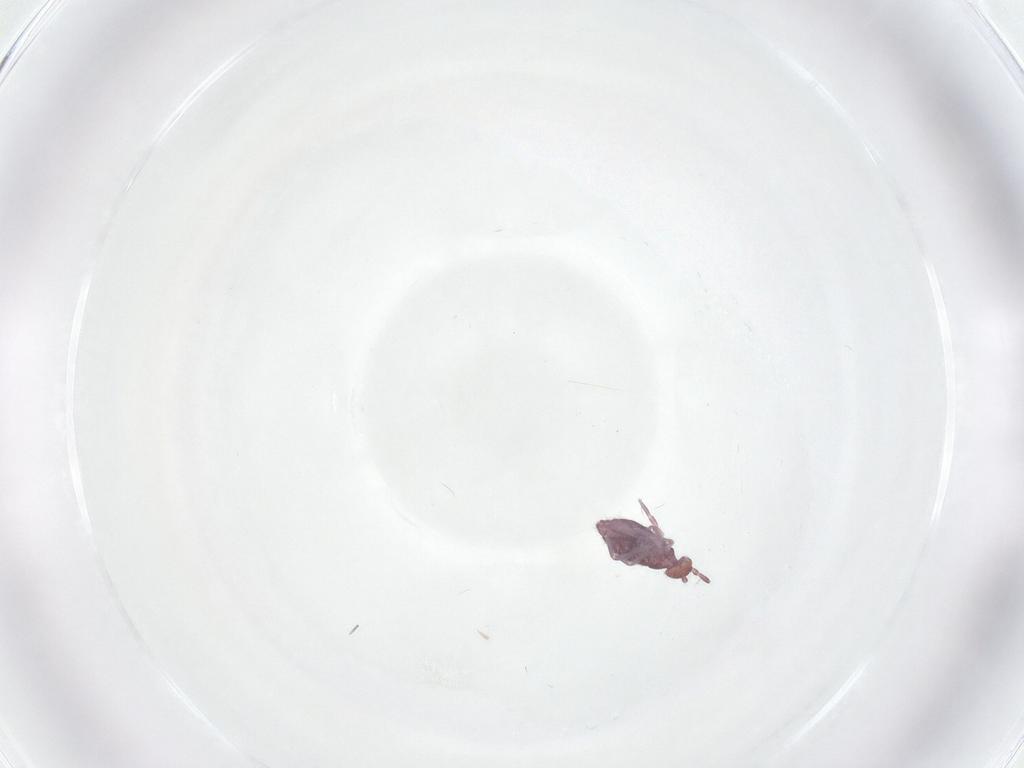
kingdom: Animalia
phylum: Arthropoda
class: Collembola
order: Entomobryomorpha
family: Entomobryidae
